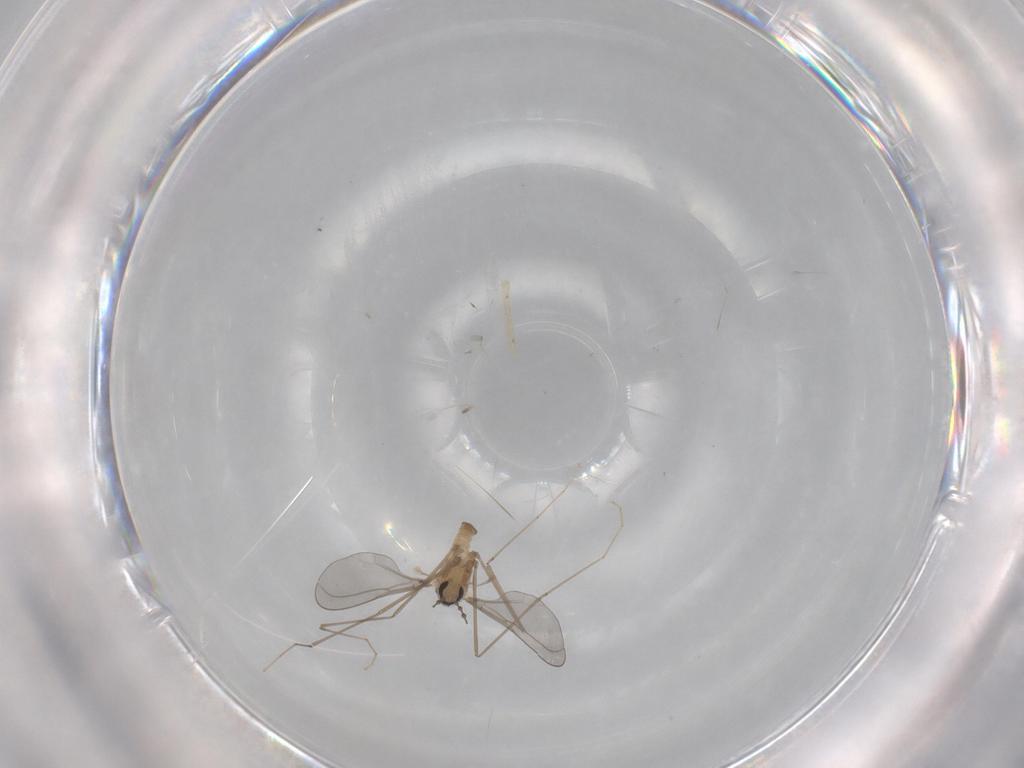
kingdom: Animalia
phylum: Arthropoda
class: Insecta
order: Diptera
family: Cecidomyiidae
